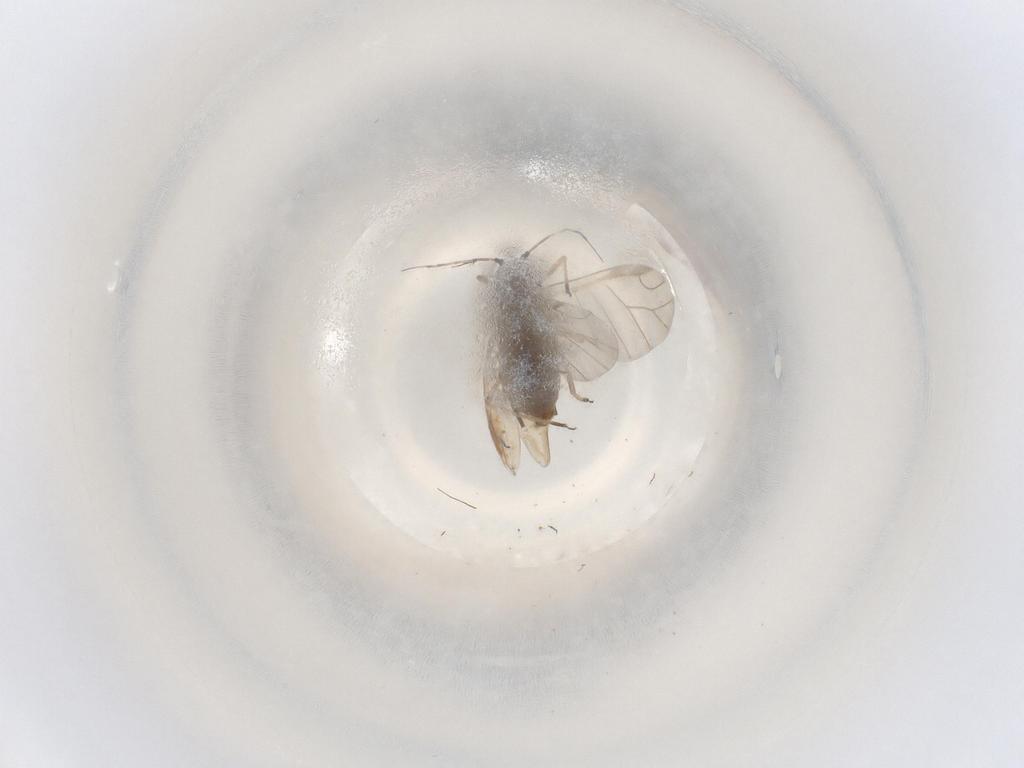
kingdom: Animalia
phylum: Arthropoda
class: Insecta
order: Hemiptera
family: Aphididae
